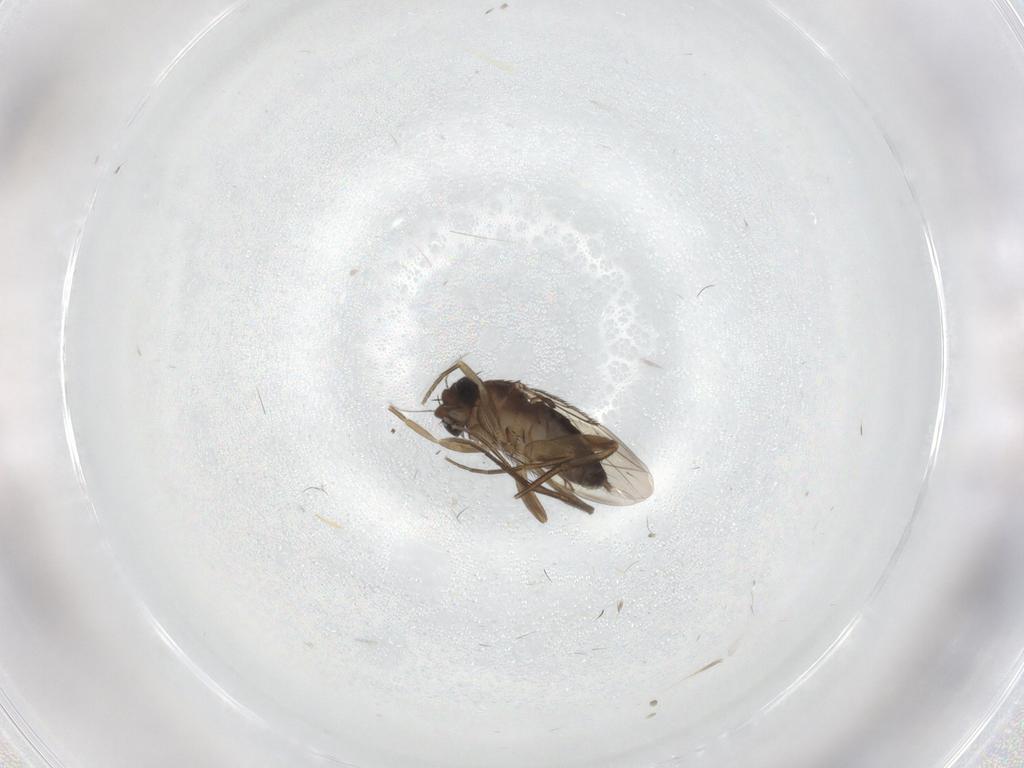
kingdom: Animalia
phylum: Arthropoda
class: Insecta
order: Diptera
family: Phoridae
